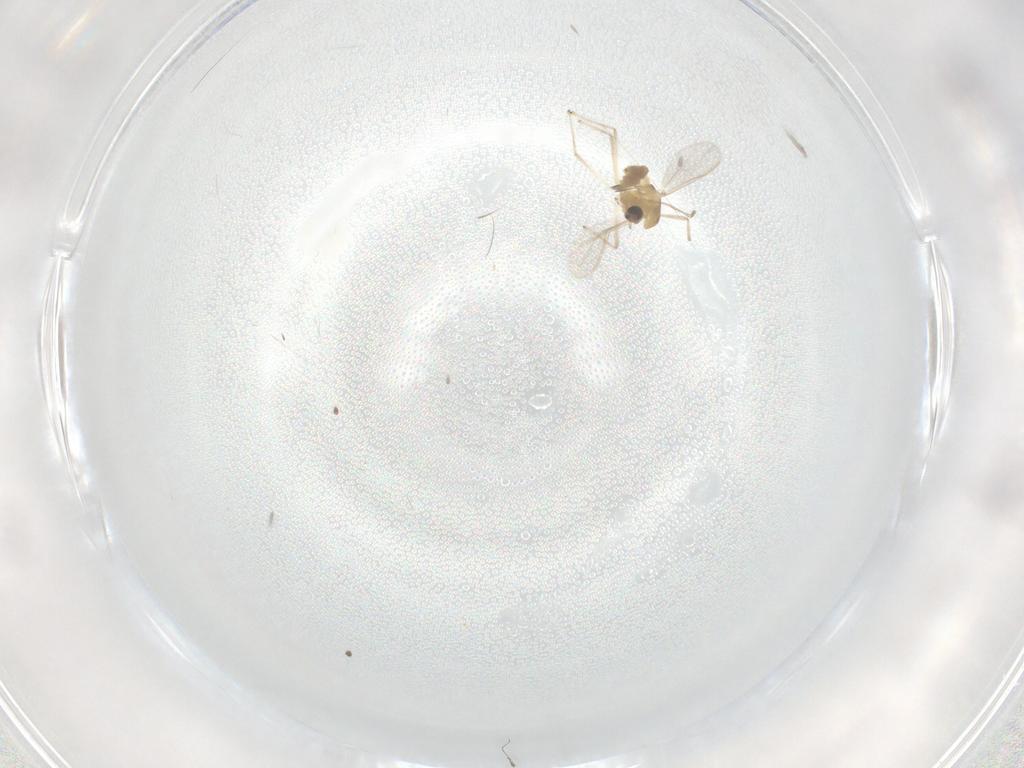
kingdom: Animalia
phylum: Arthropoda
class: Insecta
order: Diptera
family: Chironomidae
